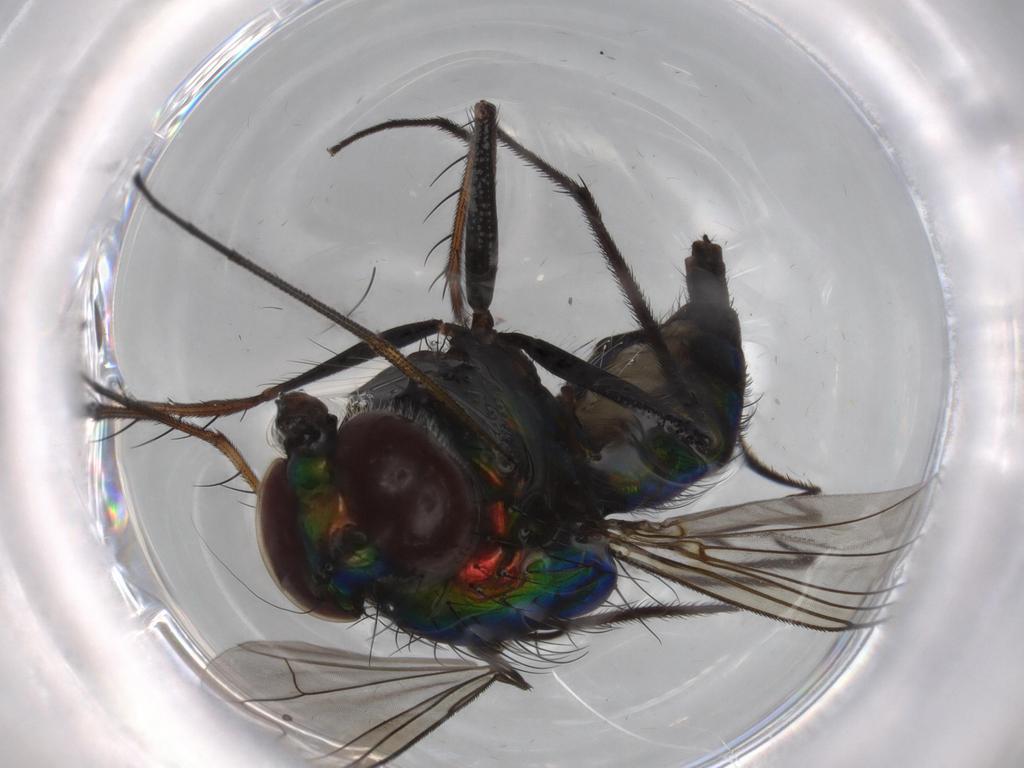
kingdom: Animalia
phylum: Arthropoda
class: Insecta
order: Diptera
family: Dolichopodidae
